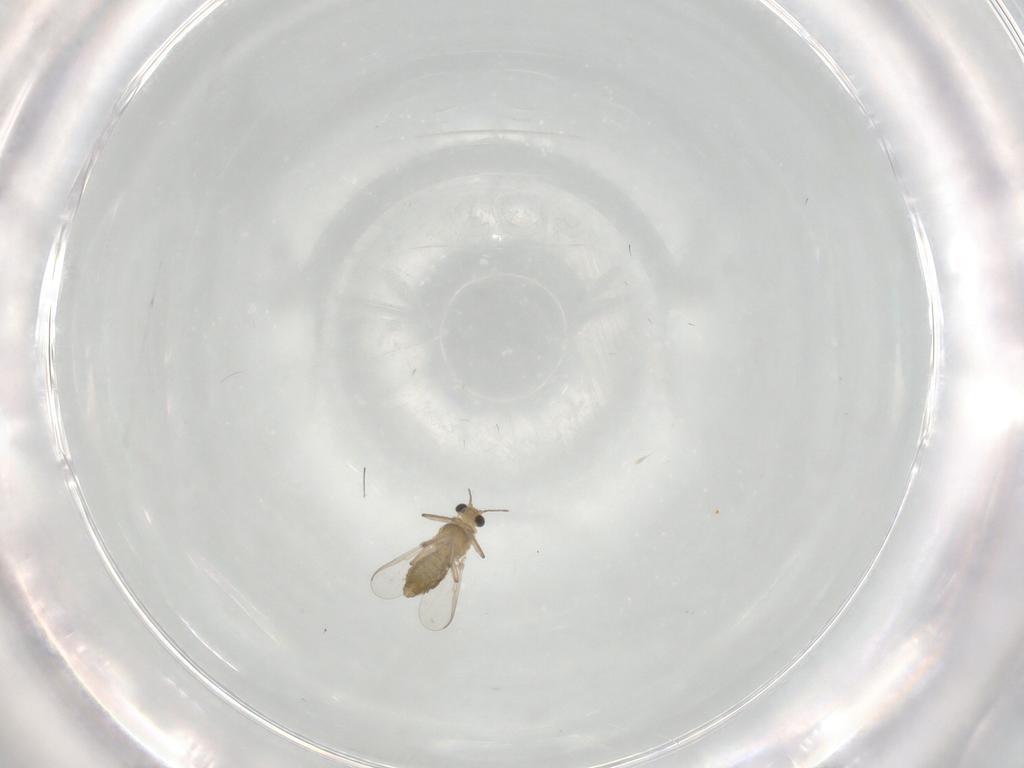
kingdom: Animalia
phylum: Arthropoda
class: Insecta
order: Diptera
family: Chironomidae
